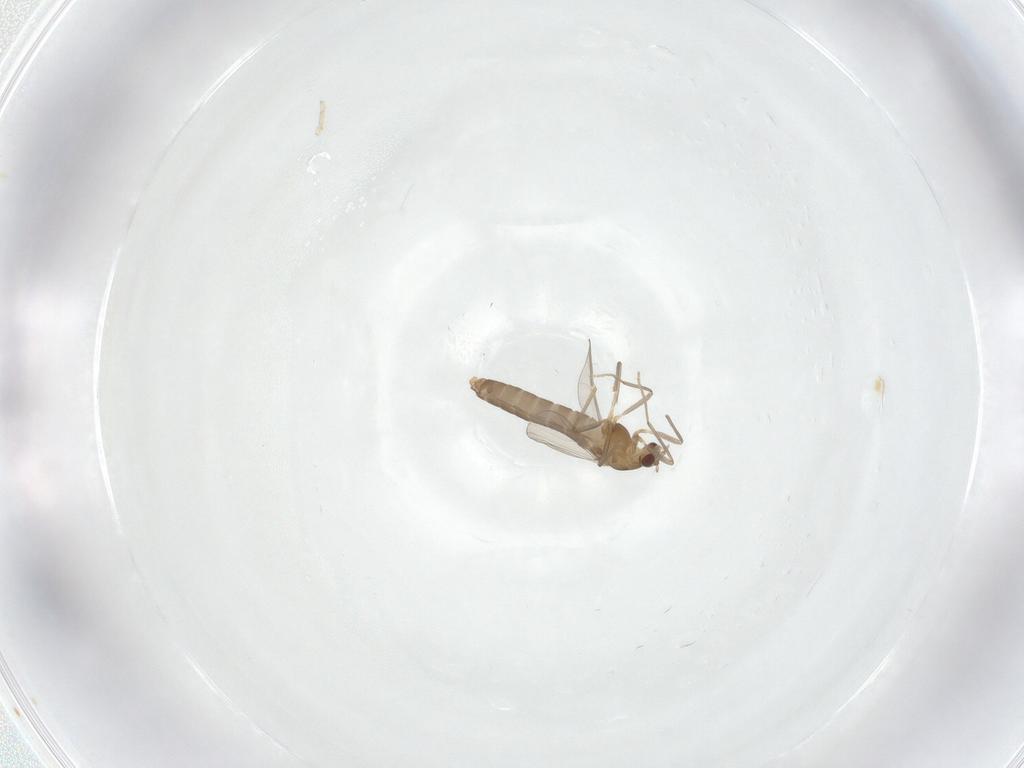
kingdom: Animalia
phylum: Arthropoda
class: Insecta
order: Diptera
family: Chironomidae
